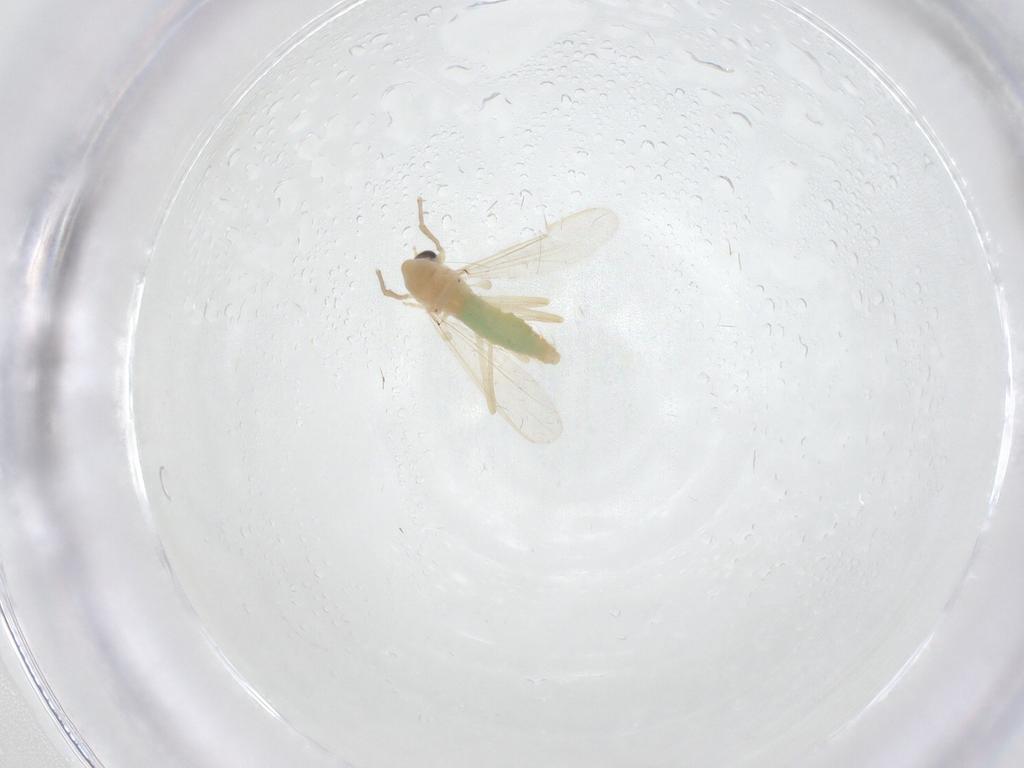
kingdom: Animalia
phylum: Arthropoda
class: Insecta
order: Diptera
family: Chironomidae
